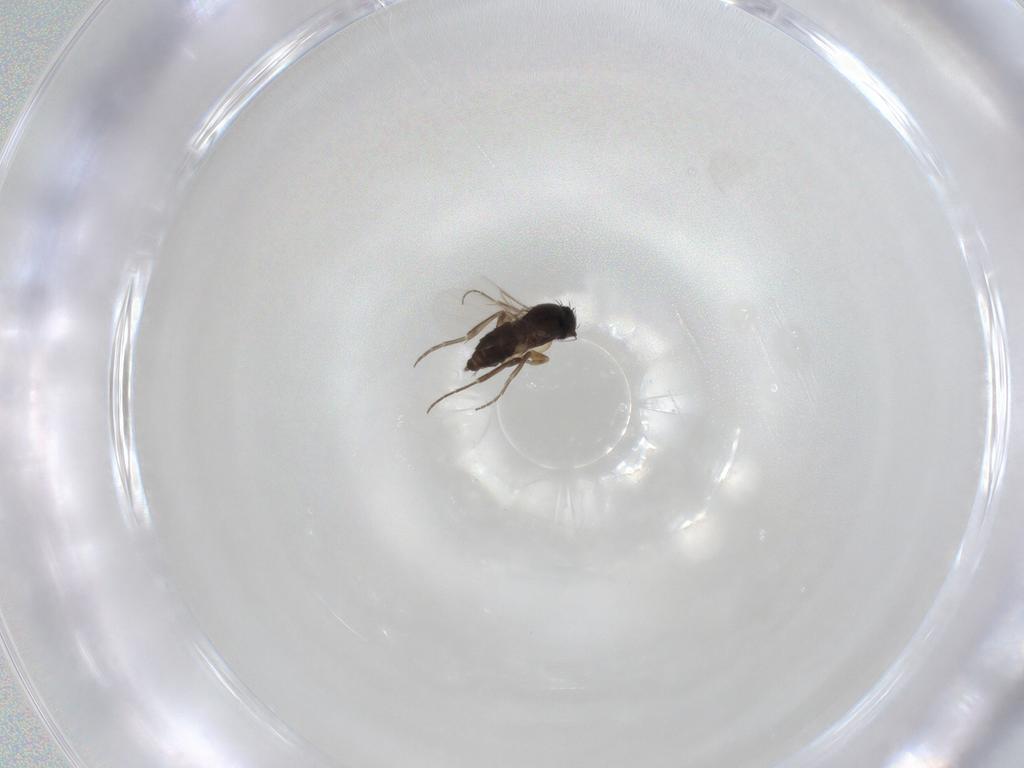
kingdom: Animalia
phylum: Arthropoda
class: Insecta
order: Diptera
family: Phoridae
